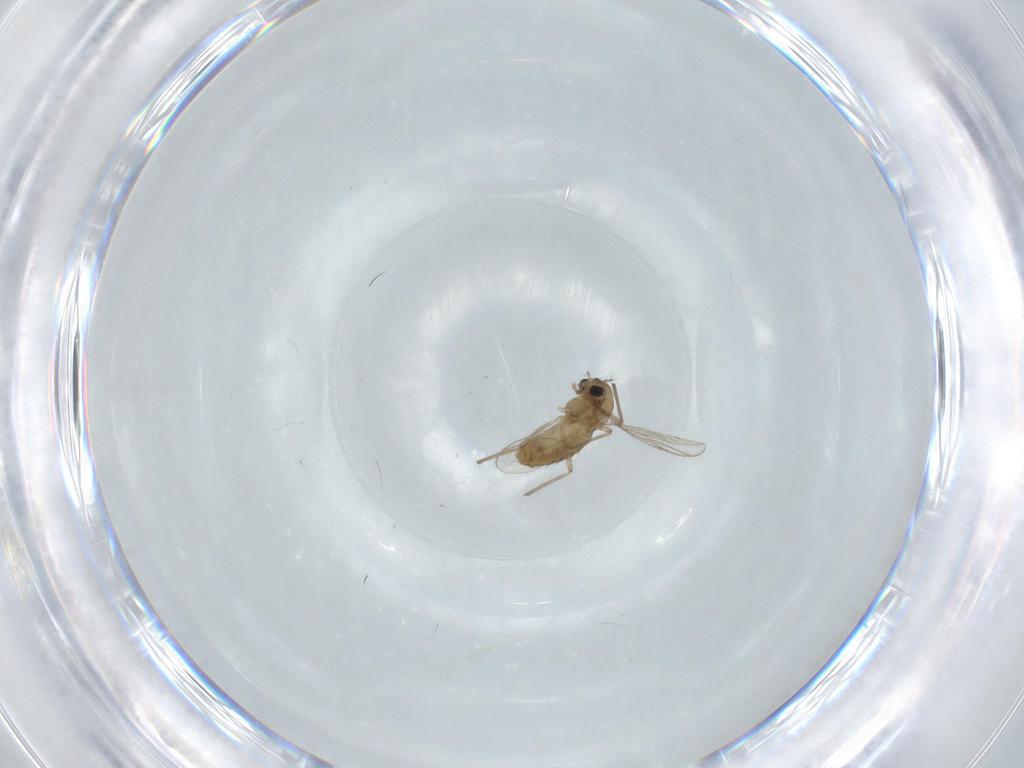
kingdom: Animalia
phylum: Arthropoda
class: Insecta
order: Diptera
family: Chironomidae
